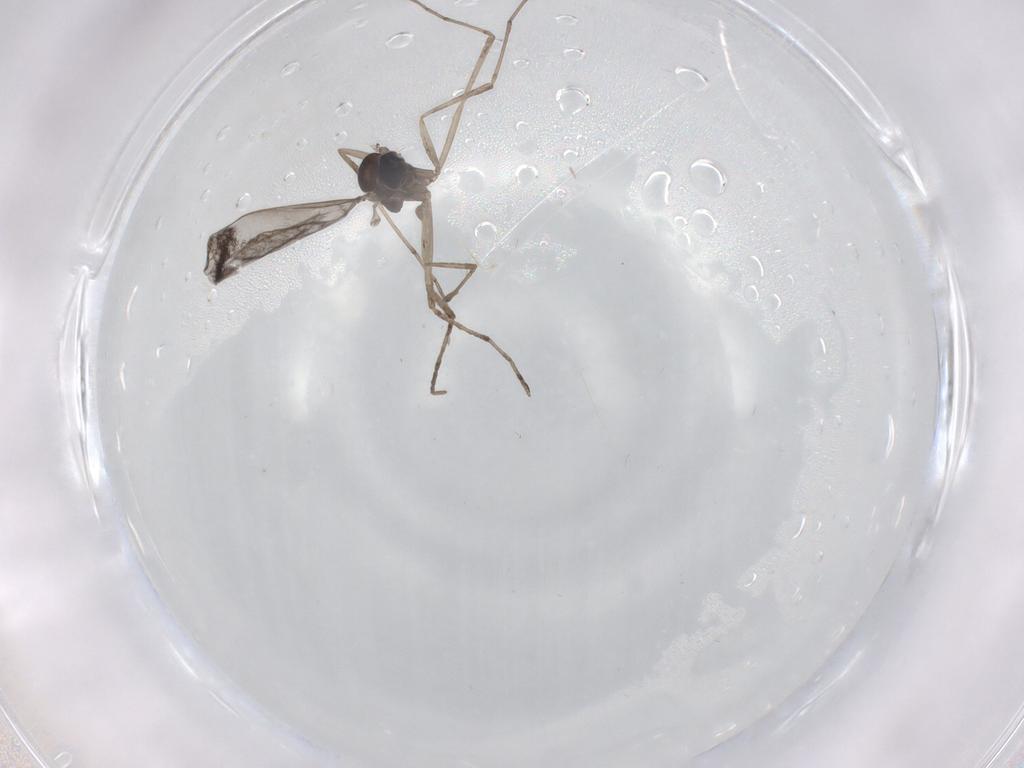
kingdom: Animalia
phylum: Arthropoda
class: Insecta
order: Diptera
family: Cecidomyiidae
